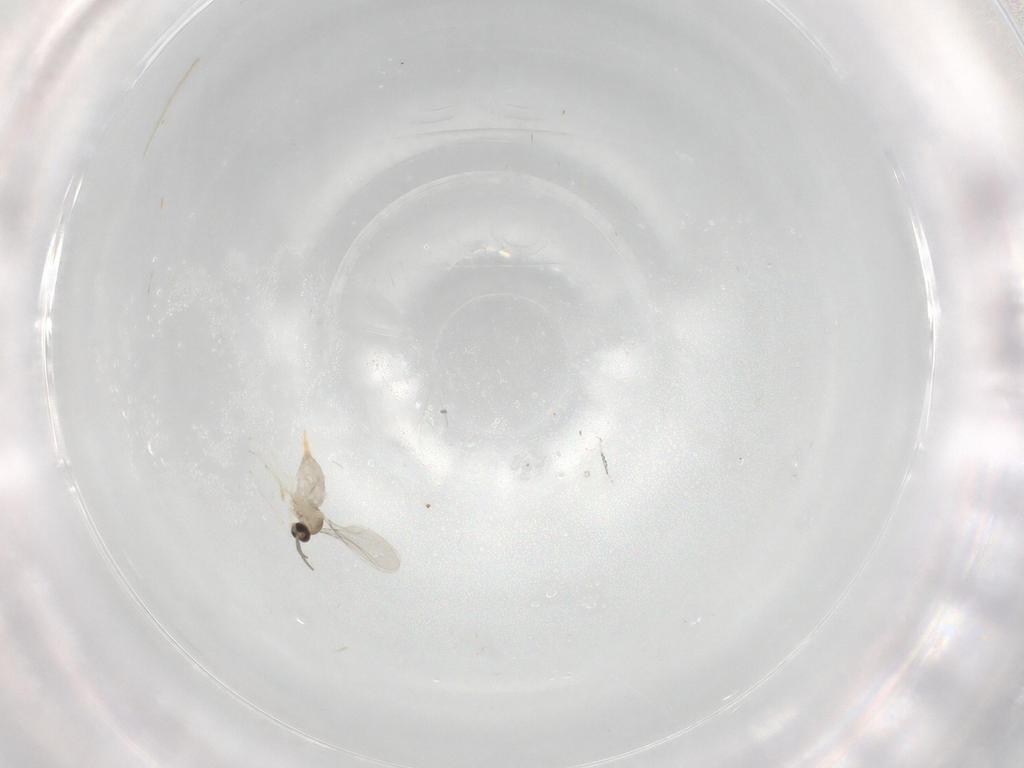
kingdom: Animalia
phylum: Arthropoda
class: Insecta
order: Diptera
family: Cecidomyiidae
